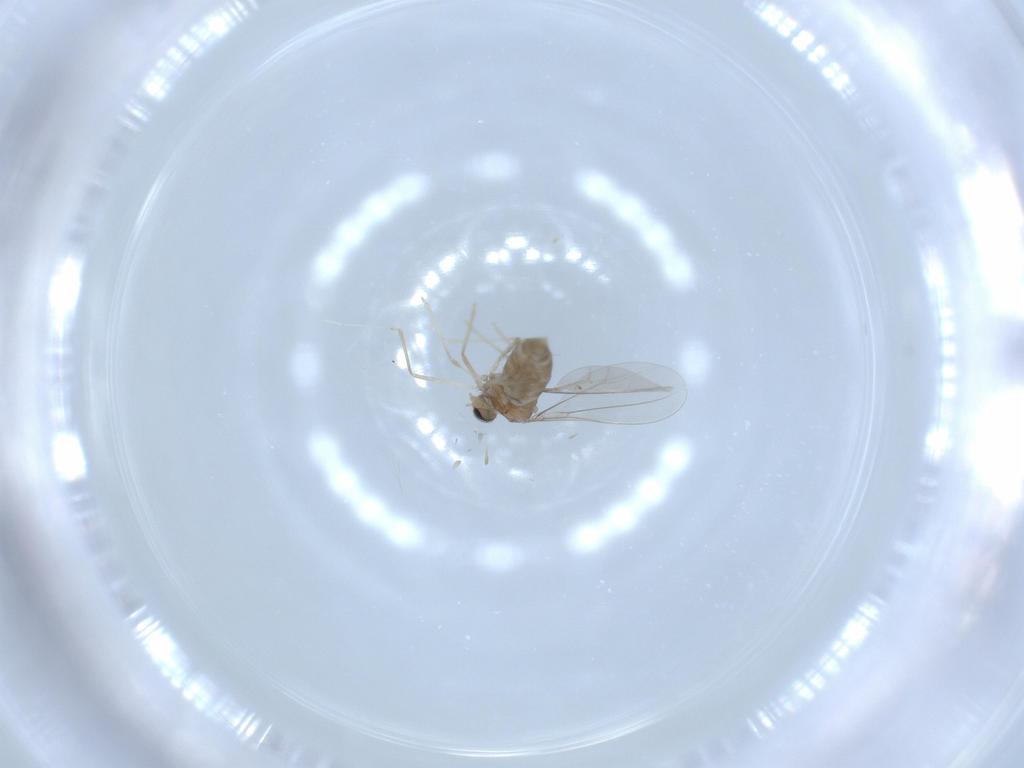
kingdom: Animalia
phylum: Arthropoda
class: Insecta
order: Diptera
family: Cecidomyiidae
